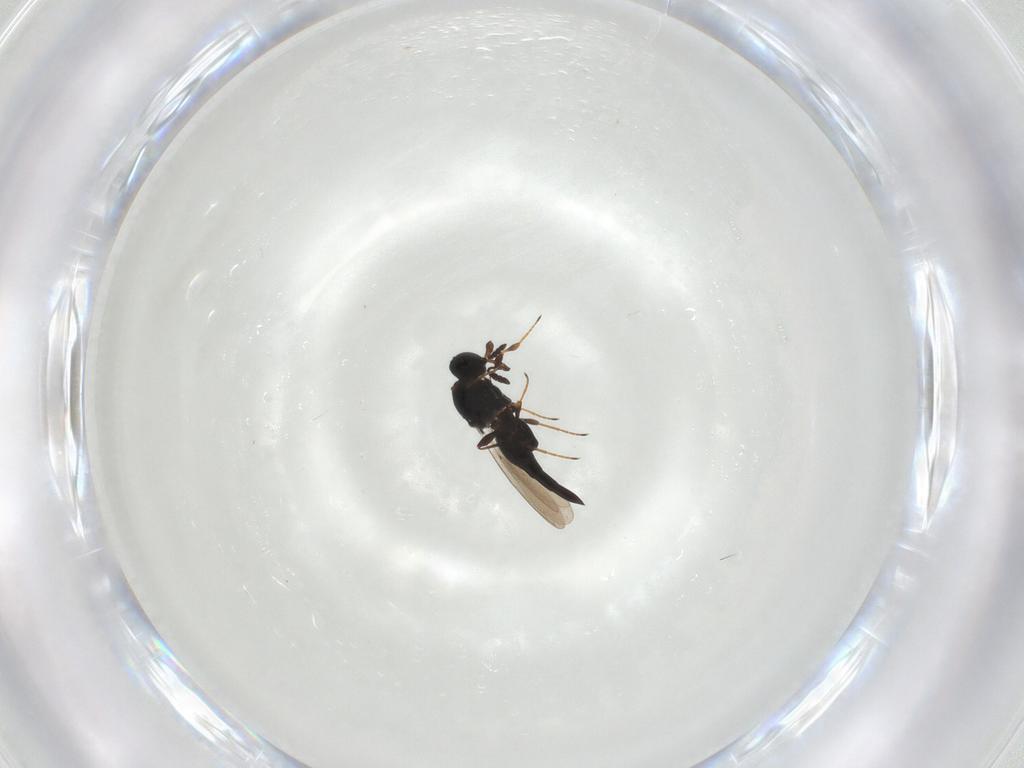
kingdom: Animalia
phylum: Arthropoda
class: Insecta
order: Hymenoptera
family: Platygastridae
